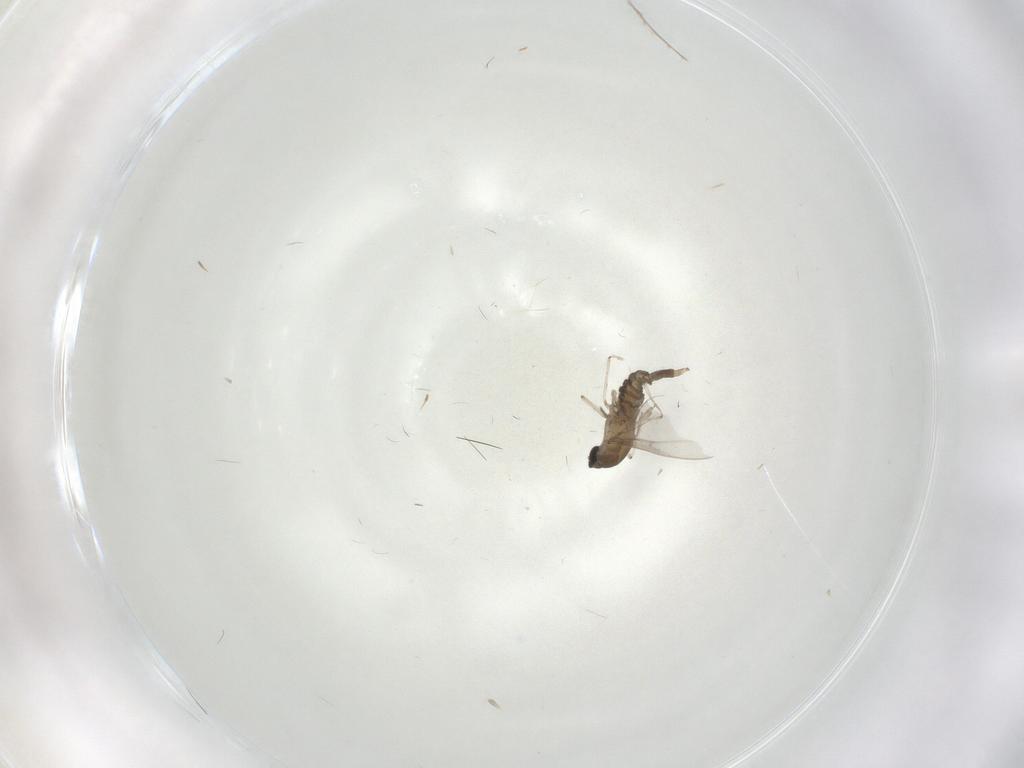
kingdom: Animalia
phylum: Arthropoda
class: Insecta
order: Diptera
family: Cecidomyiidae
